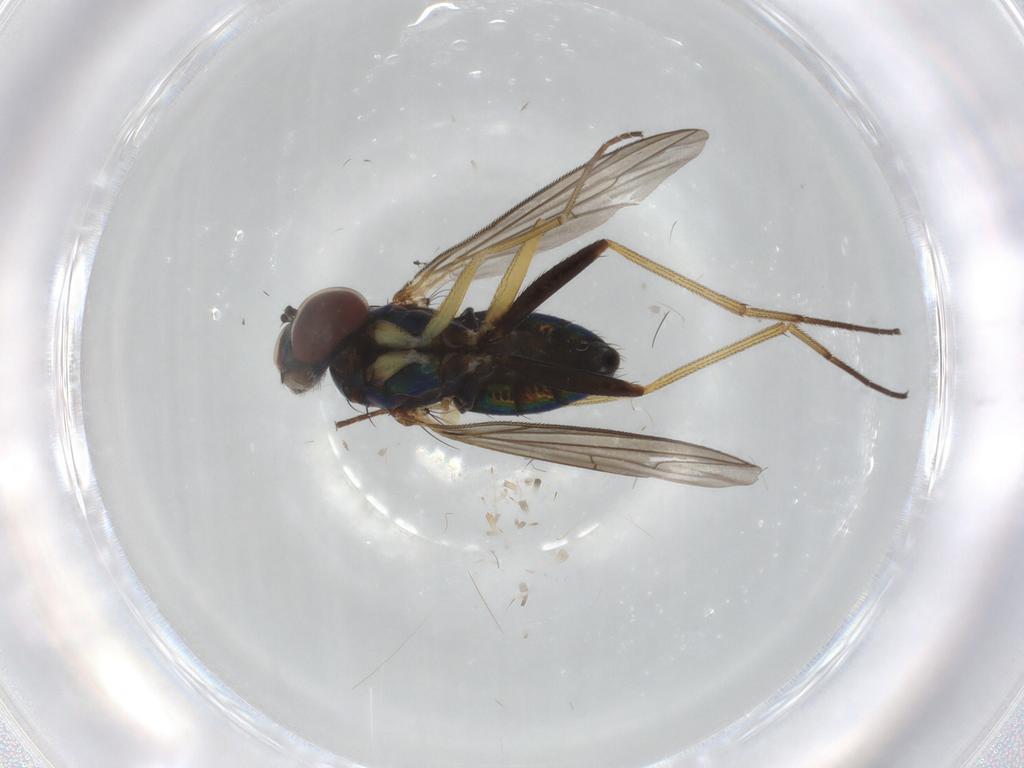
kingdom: Animalia
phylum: Arthropoda
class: Insecta
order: Diptera
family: Dolichopodidae
